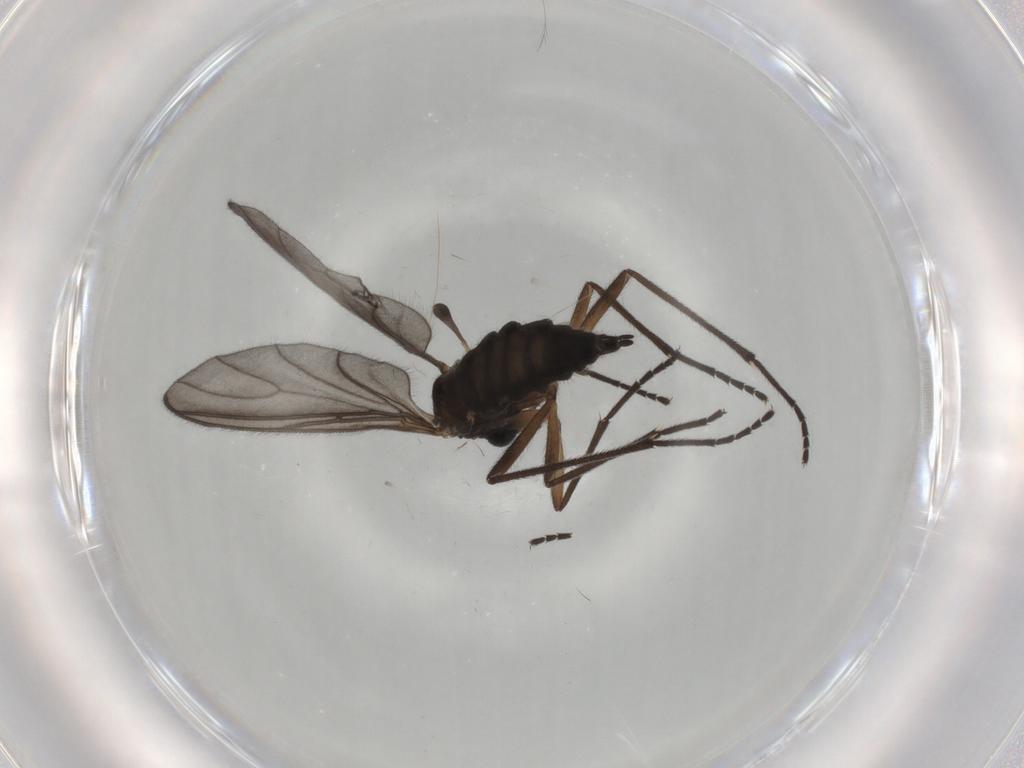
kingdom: Animalia
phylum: Arthropoda
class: Insecta
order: Diptera
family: Sciaridae
